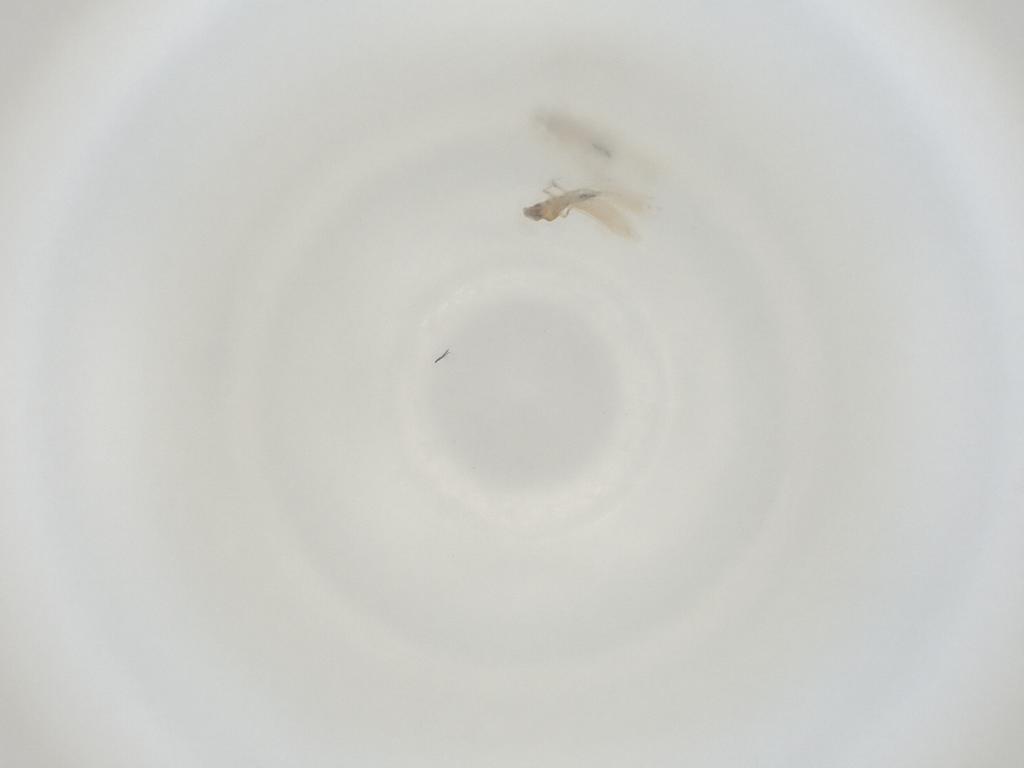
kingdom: Animalia
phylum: Arthropoda
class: Insecta
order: Diptera
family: Cecidomyiidae
